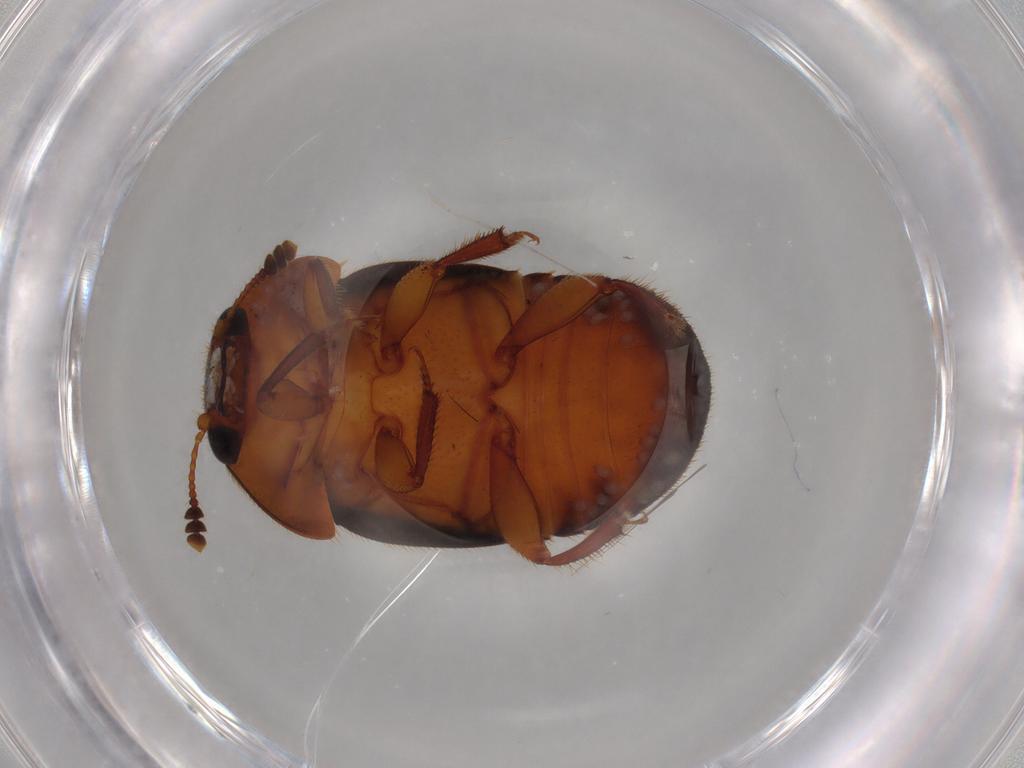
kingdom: Animalia
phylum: Arthropoda
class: Insecta
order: Coleoptera
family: Nitidulidae
